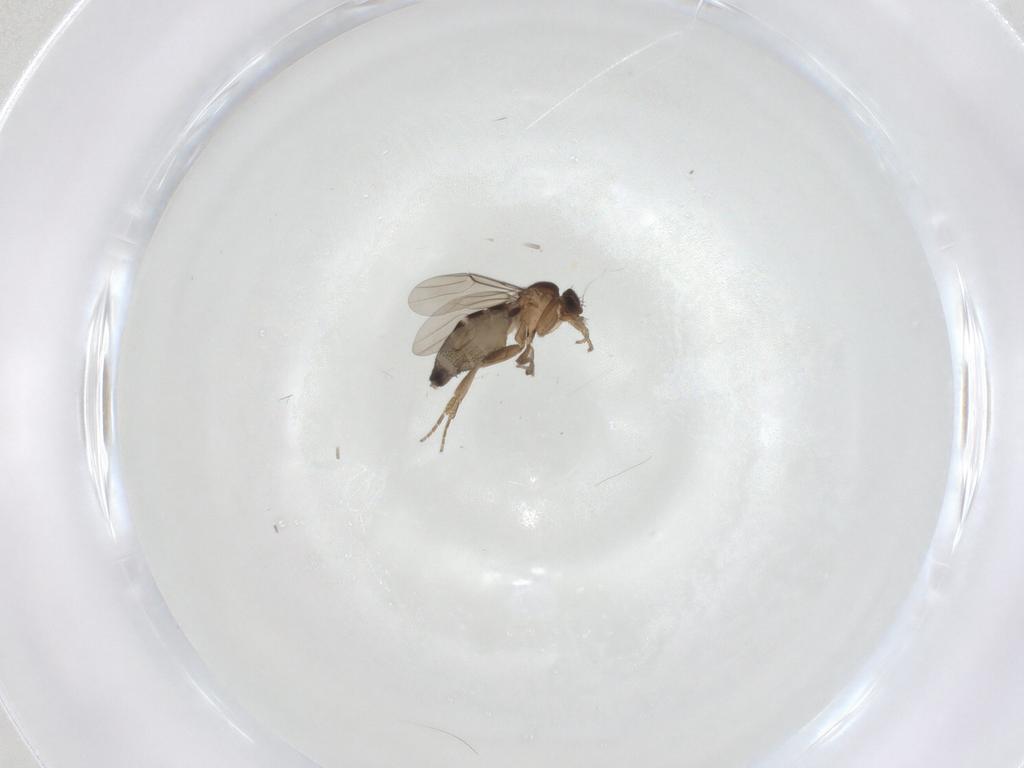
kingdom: Animalia
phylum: Arthropoda
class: Insecta
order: Diptera
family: Phoridae
